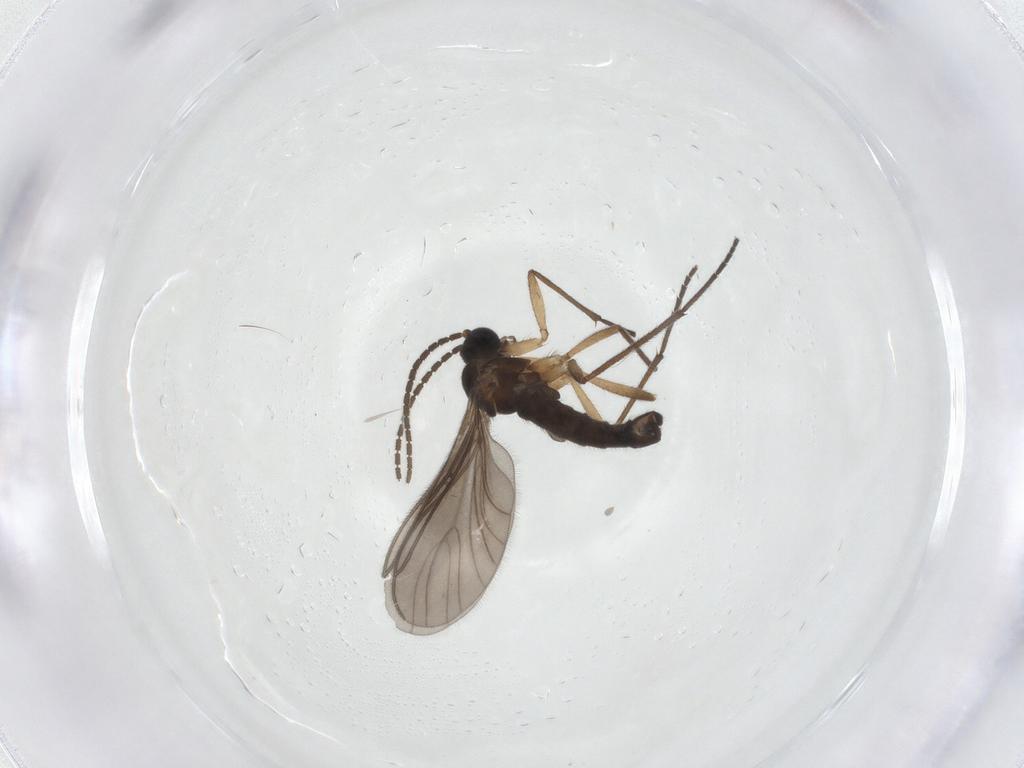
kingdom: Animalia
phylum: Arthropoda
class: Insecta
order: Diptera
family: Sciaridae
